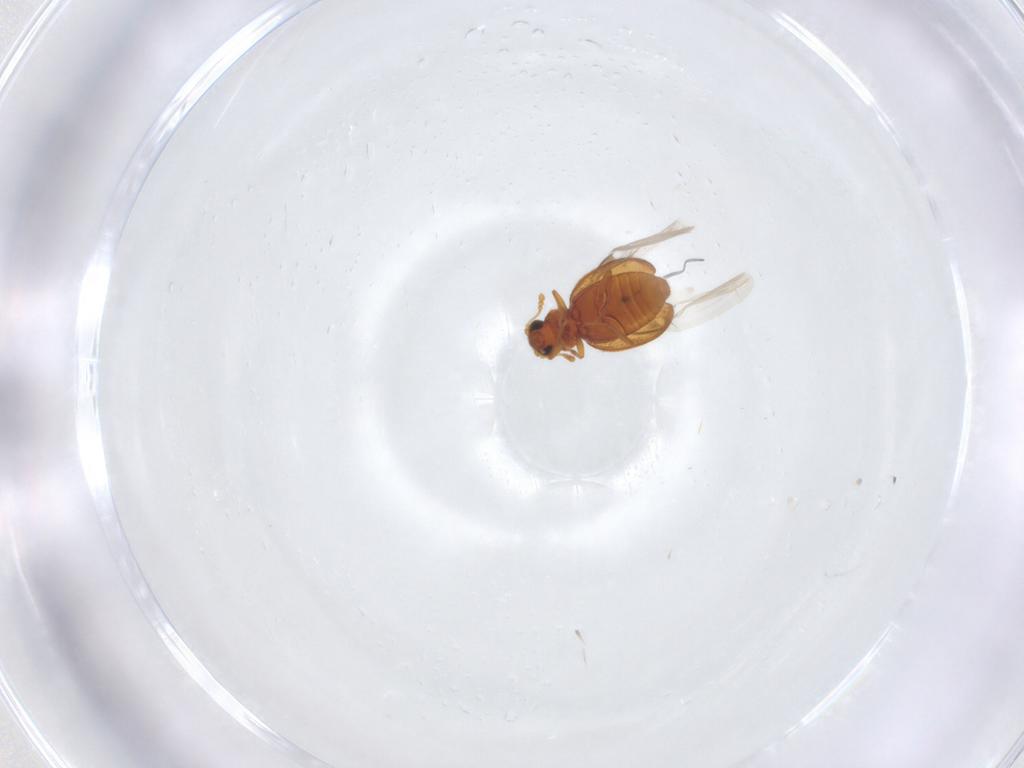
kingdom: Animalia
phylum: Arthropoda
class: Insecta
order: Coleoptera
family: Latridiidae
